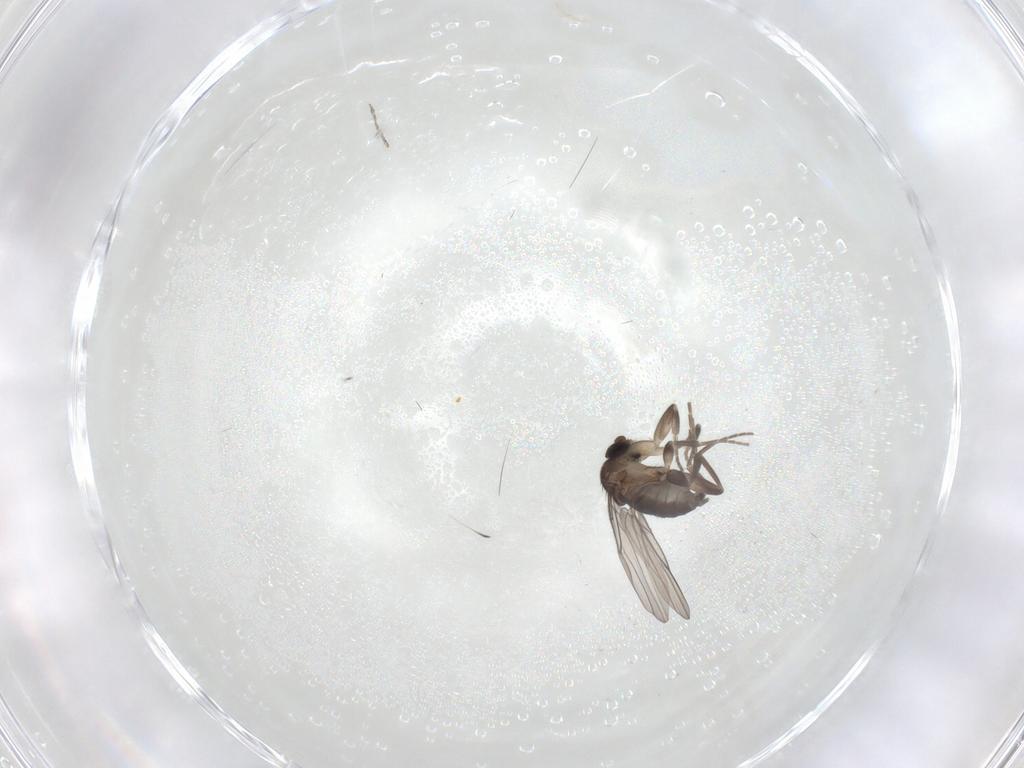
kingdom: Animalia
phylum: Arthropoda
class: Insecta
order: Diptera
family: Limoniidae
